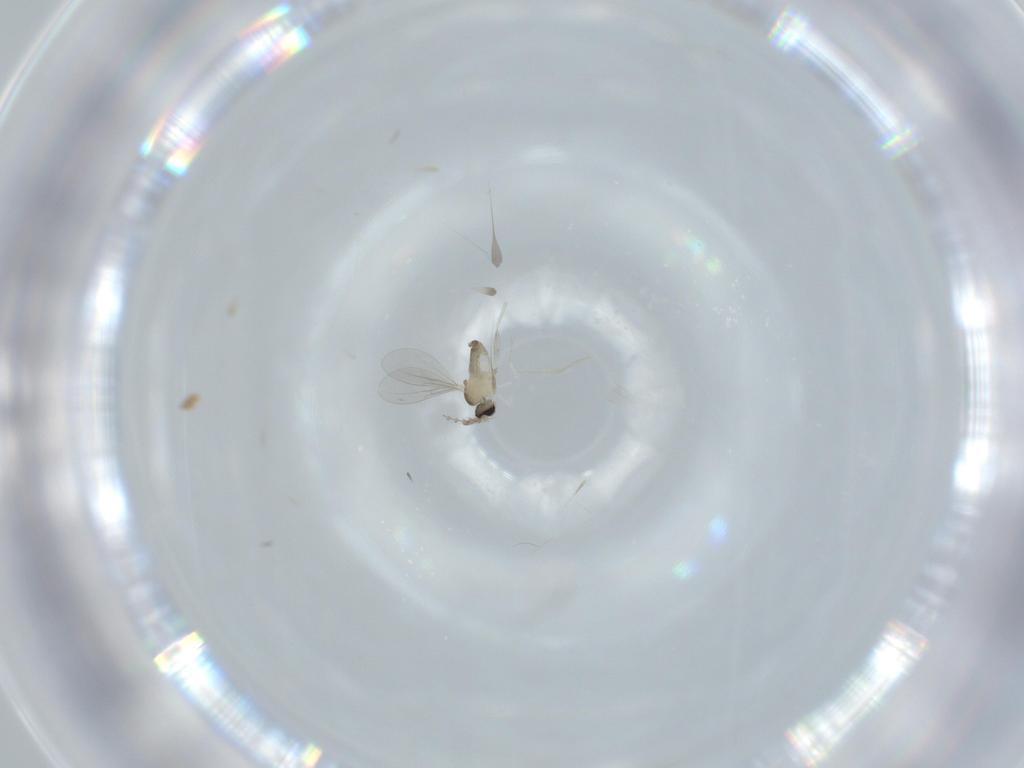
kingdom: Animalia
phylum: Arthropoda
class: Insecta
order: Diptera
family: Cecidomyiidae
